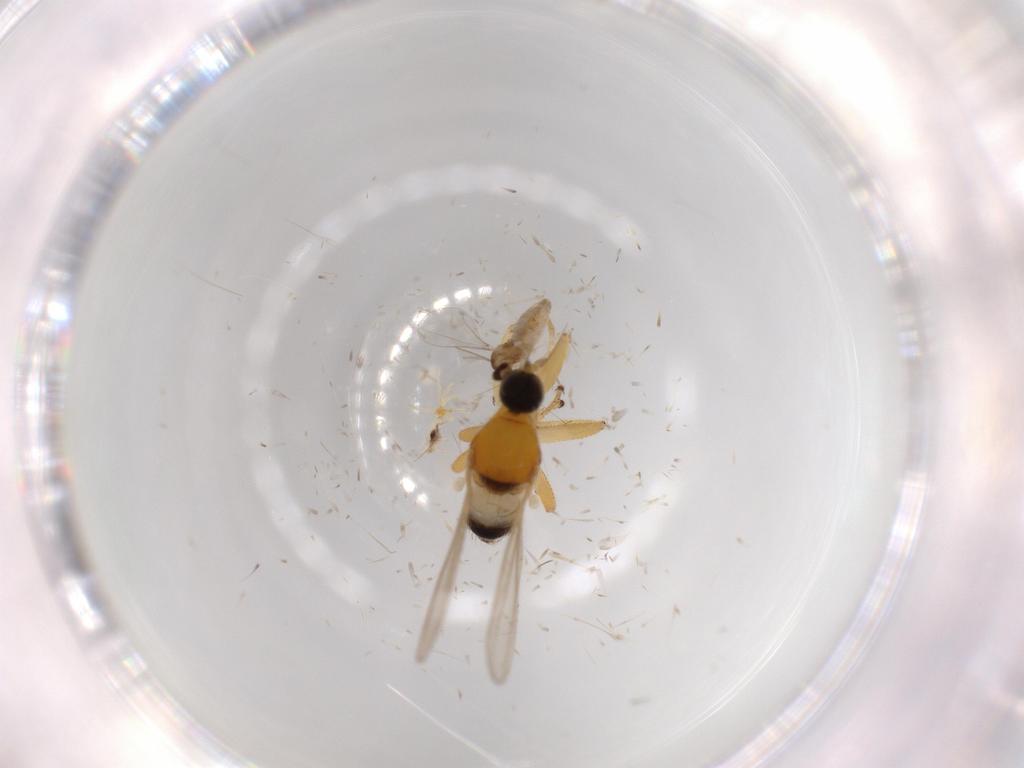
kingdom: Animalia
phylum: Arthropoda
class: Insecta
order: Diptera
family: Hybotidae
